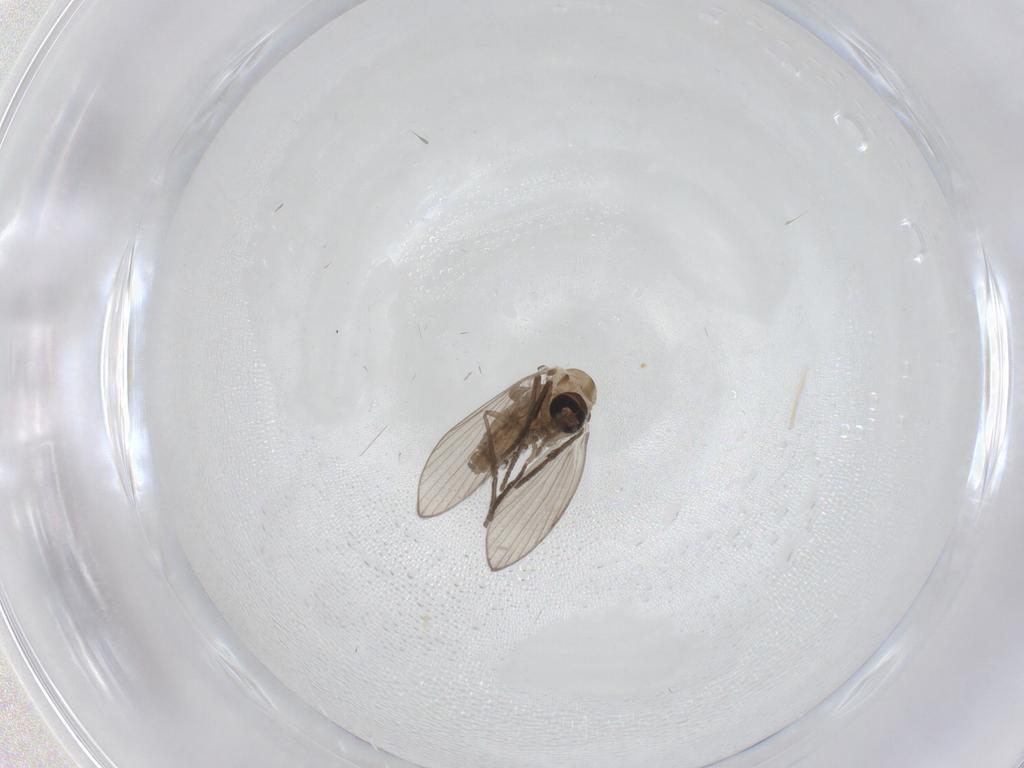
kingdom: Animalia
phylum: Arthropoda
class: Insecta
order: Diptera
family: Psychodidae
